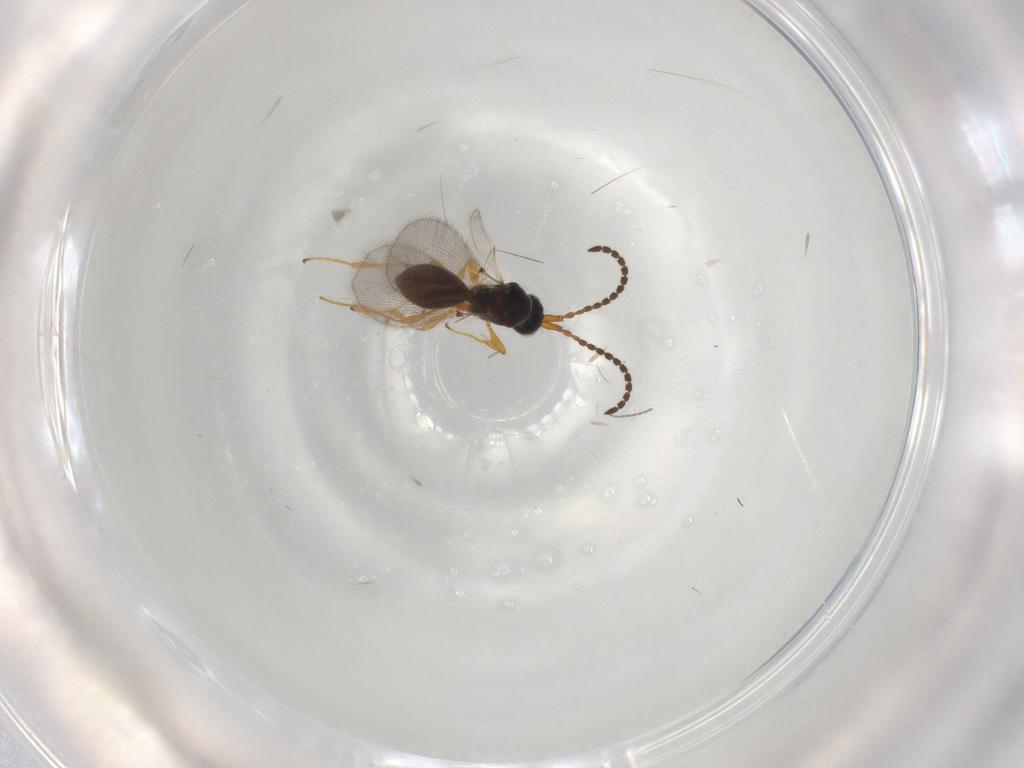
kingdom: Animalia
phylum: Arthropoda
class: Insecta
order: Hymenoptera
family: Diapriidae
